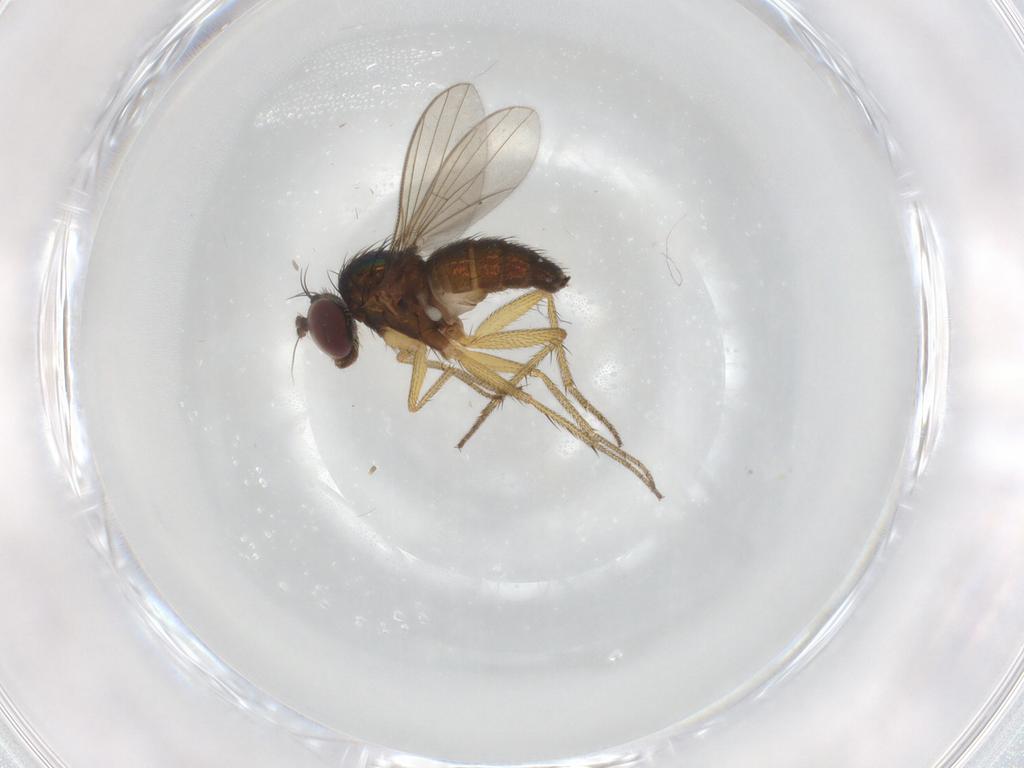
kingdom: Animalia
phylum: Arthropoda
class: Insecta
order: Diptera
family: Dolichopodidae
